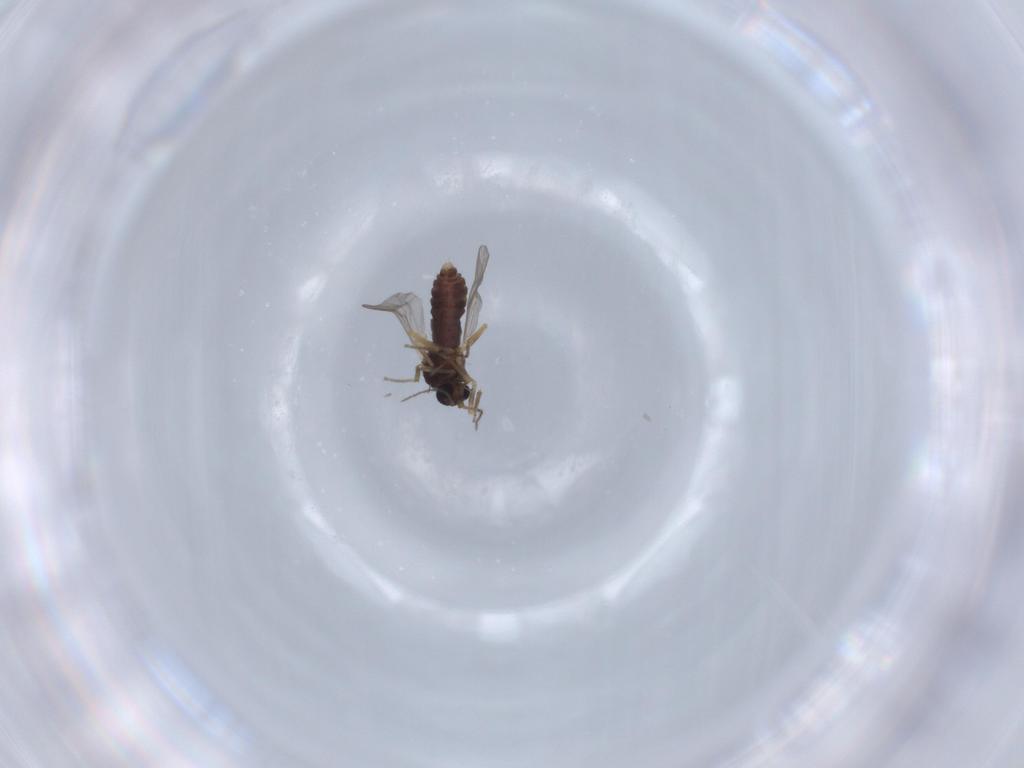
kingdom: Animalia
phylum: Arthropoda
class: Insecta
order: Diptera
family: Ceratopogonidae
